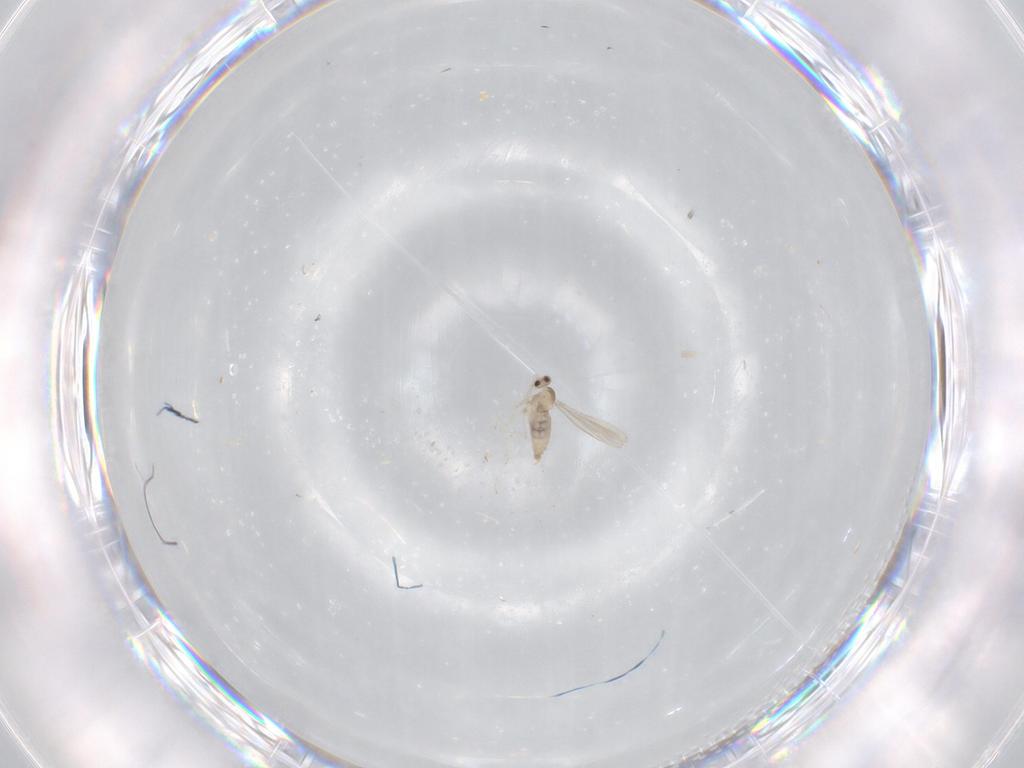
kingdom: Animalia
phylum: Arthropoda
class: Insecta
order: Diptera
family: Cecidomyiidae
